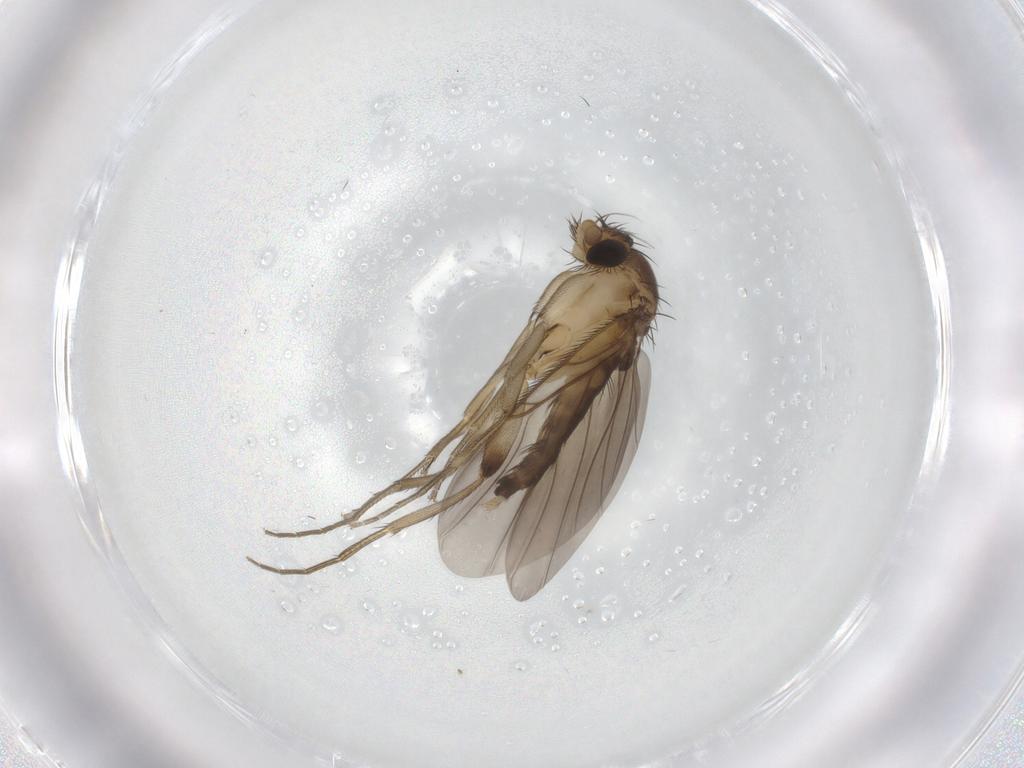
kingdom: Animalia
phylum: Arthropoda
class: Insecta
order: Diptera
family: Phoridae
